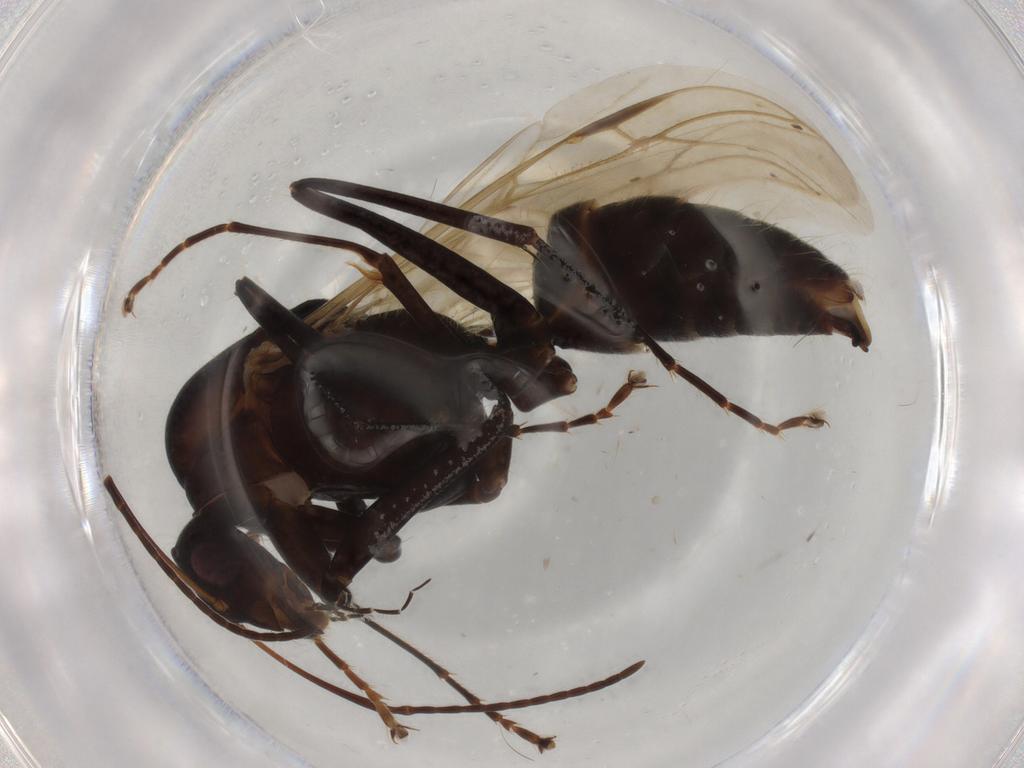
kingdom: Animalia
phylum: Arthropoda
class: Insecta
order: Hymenoptera
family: Formicidae
